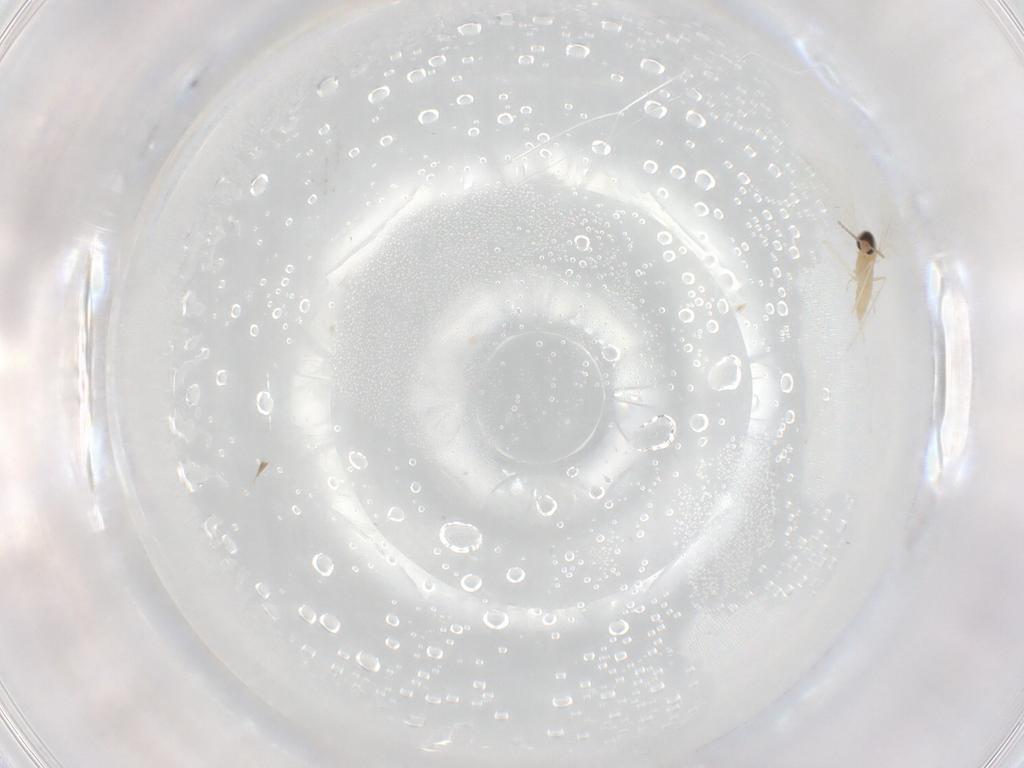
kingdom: Animalia
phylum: Arthropoda
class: Insecta
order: Diptera
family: Cecidomyiidae
